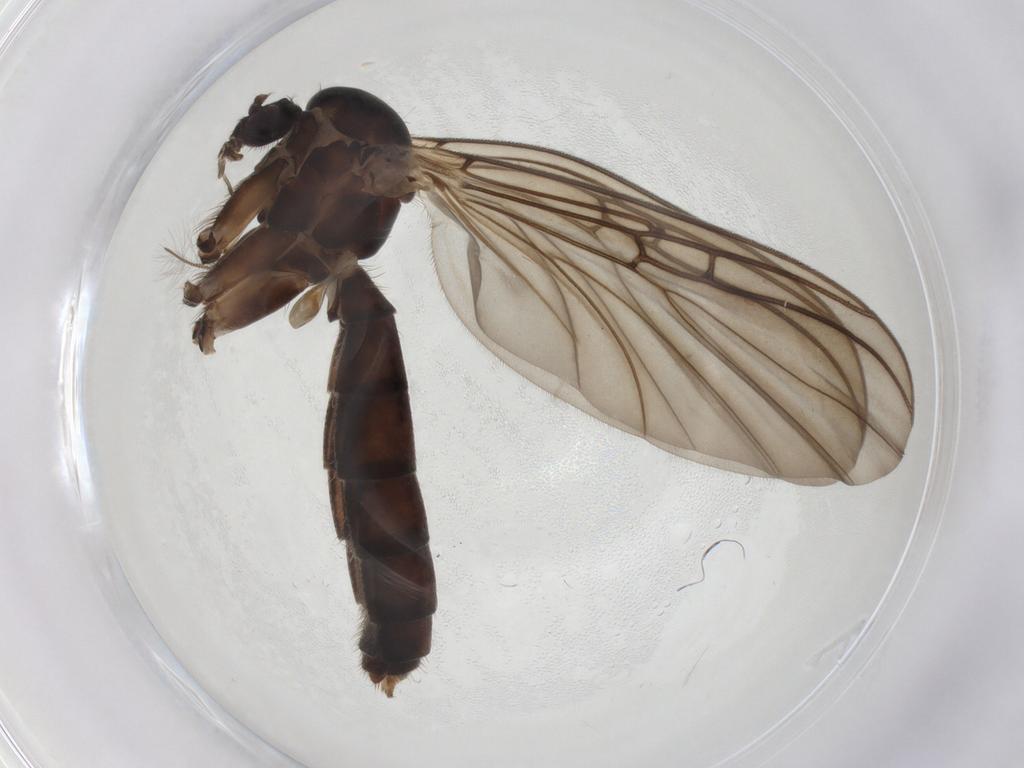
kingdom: Animalia
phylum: Arthropoda
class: Insecta
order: Diptera
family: Mycetophilidae
